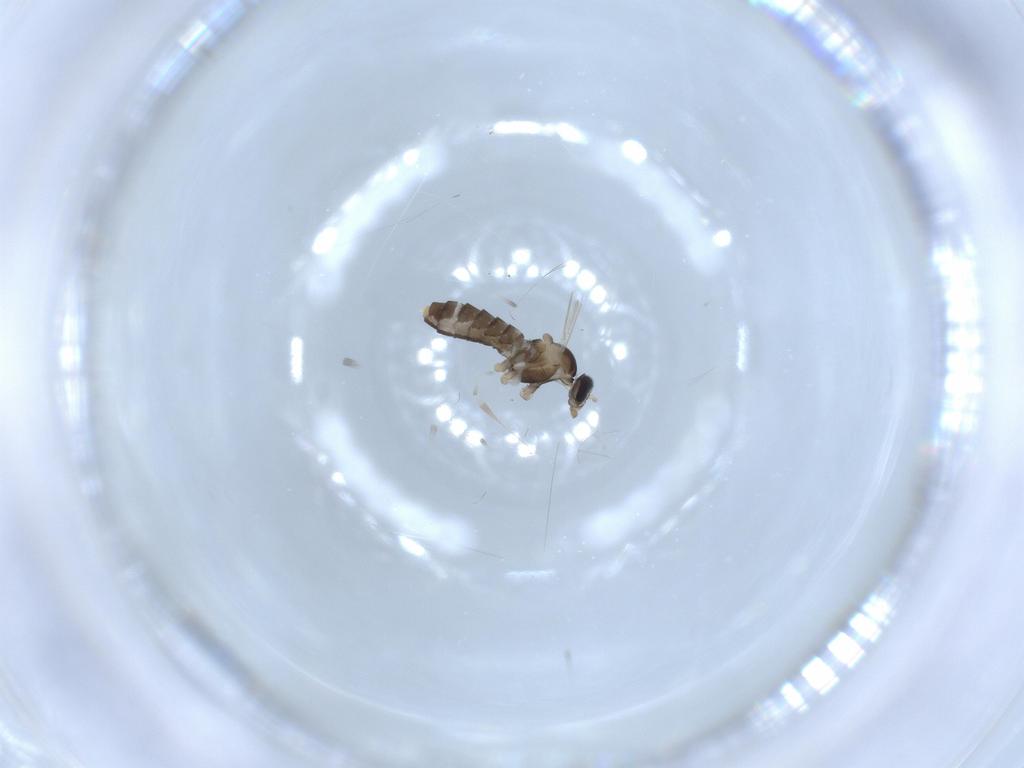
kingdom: Animalia
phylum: Arthropoda
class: Insecta
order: Diptera
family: Cecidomyiidae
